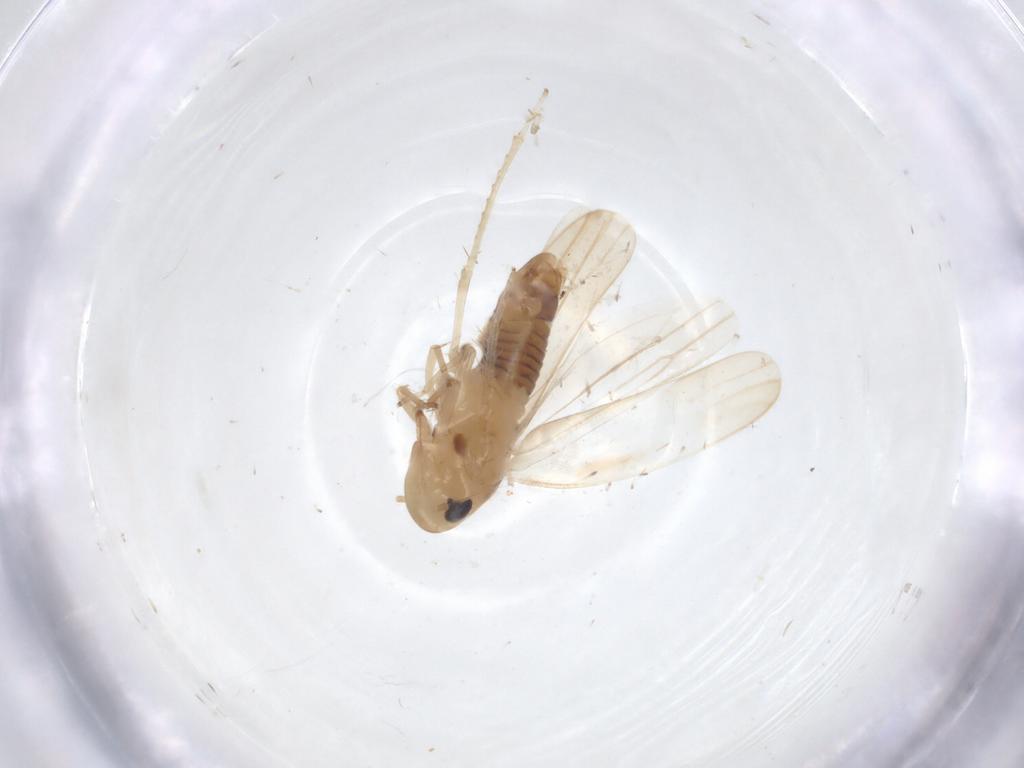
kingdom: Animalia
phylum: Arthropoda
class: Insecta
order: Hemiptera
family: Cicadellidae
